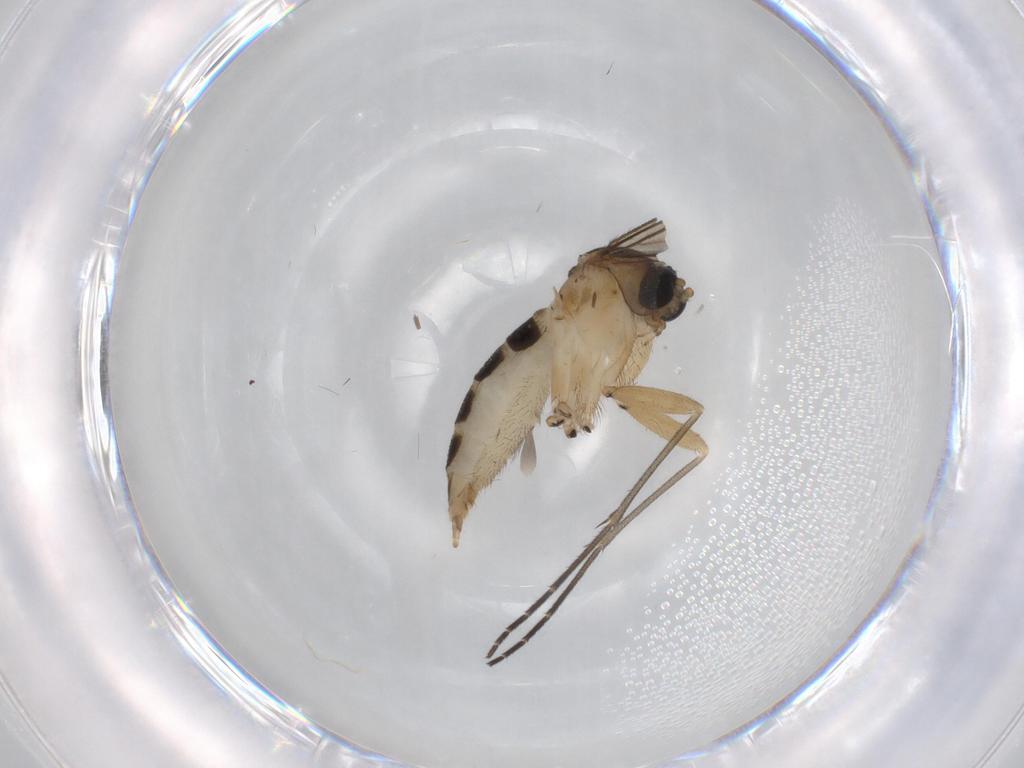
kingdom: Animalia
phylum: Arthropoda
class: Insecta
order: Diptera
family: Sciaridae
